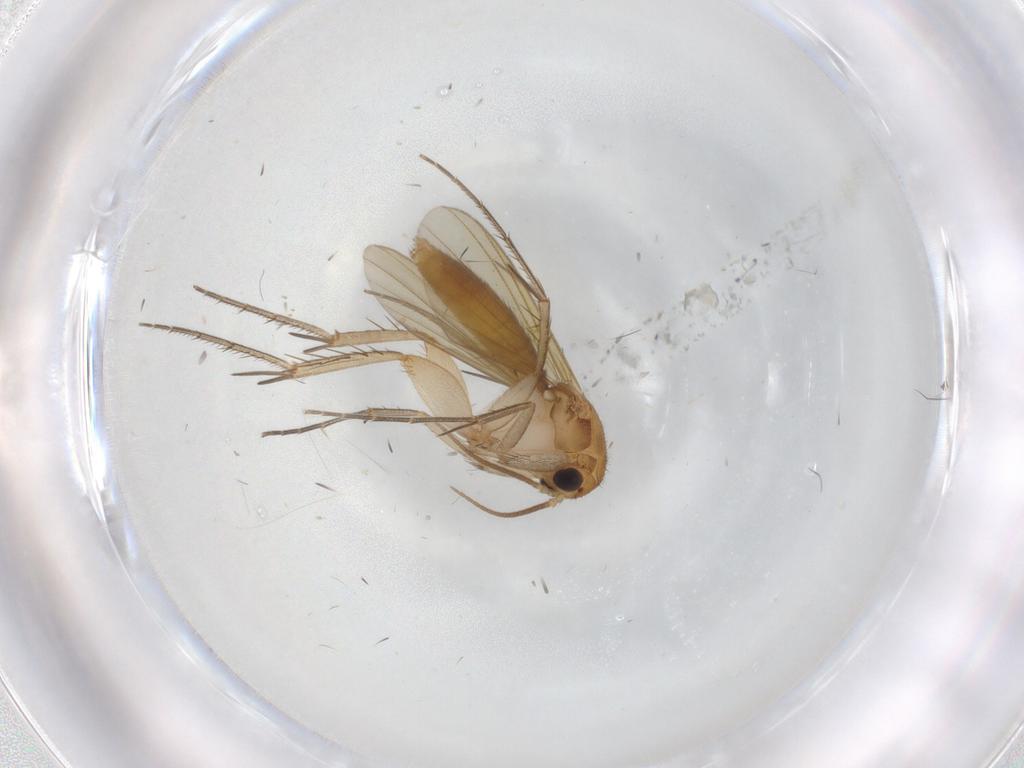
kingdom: Animalia
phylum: Arthropoda
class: Insecta
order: Diptera
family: Mycetophilidae
